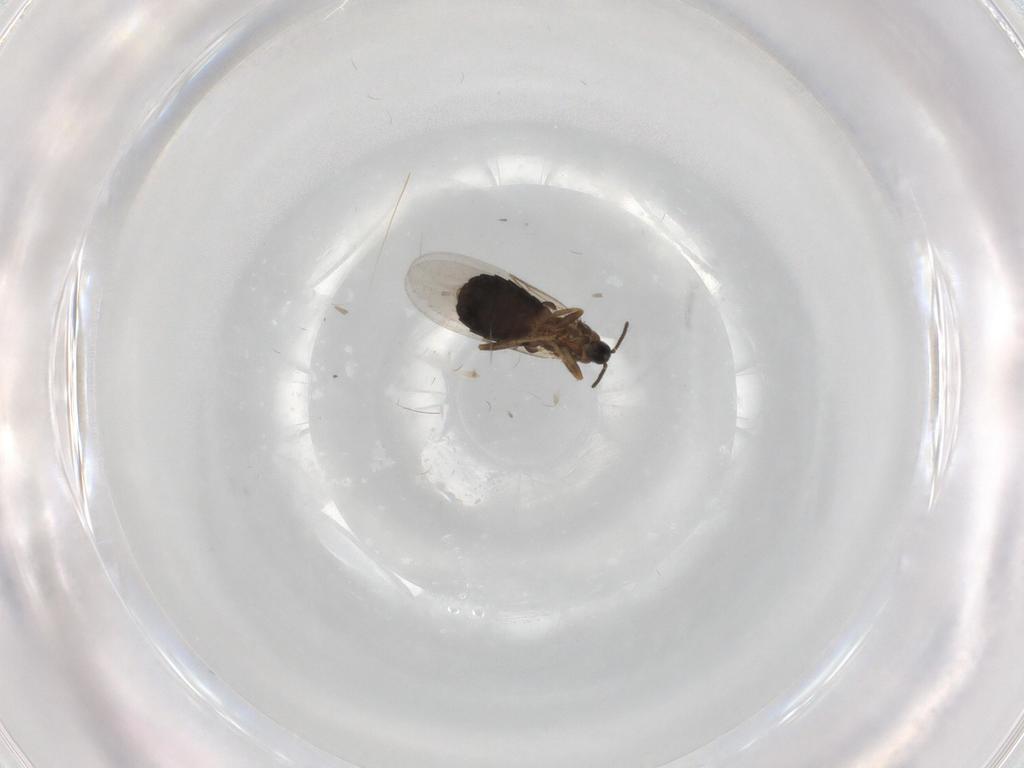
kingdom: Animalia
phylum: Arthropoda
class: Insecta
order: Diptera
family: Scatopsidae
